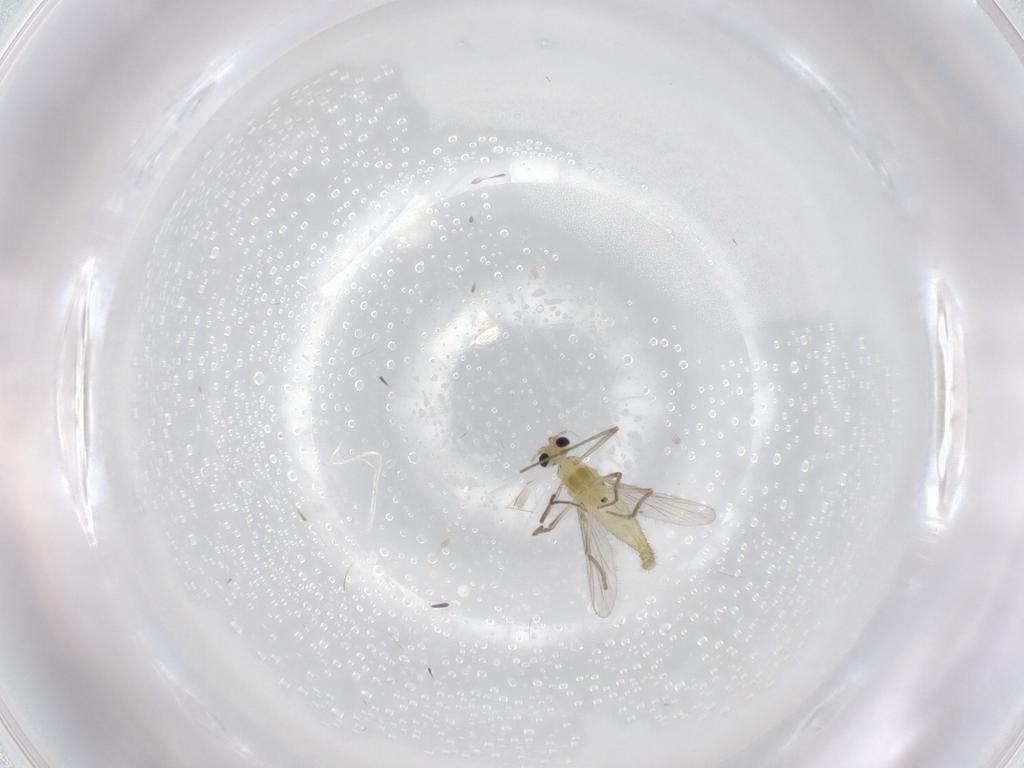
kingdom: Animalia
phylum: Arthropoda
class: Insecta
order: Diptera
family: Chironomidae
